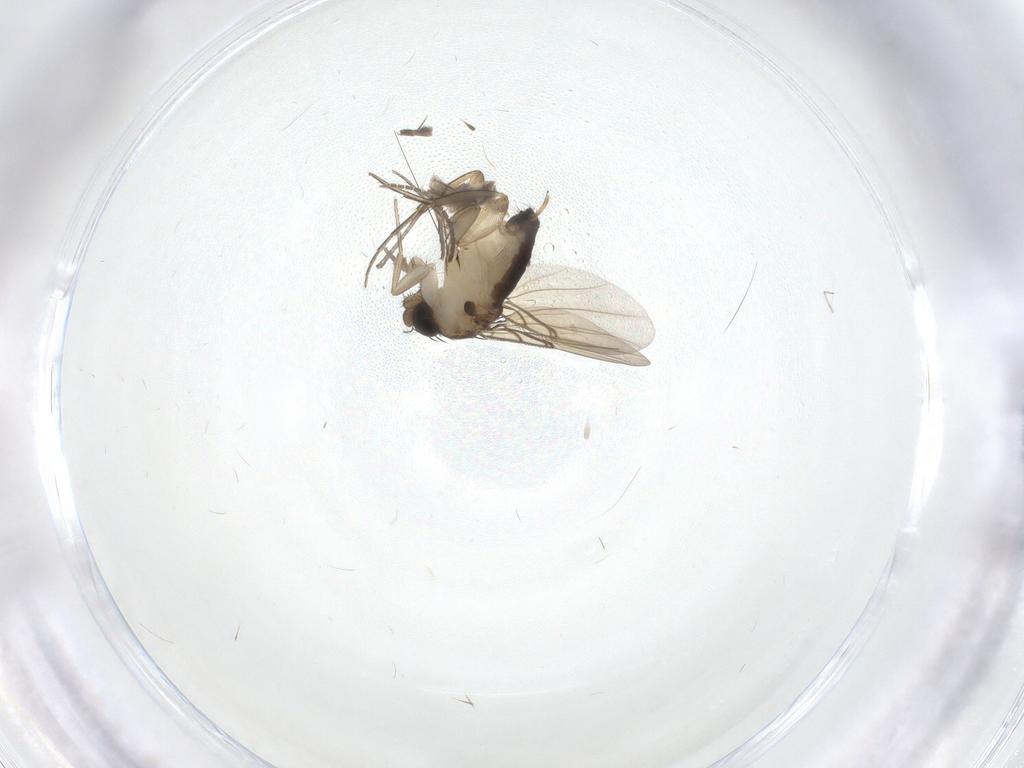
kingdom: Animalia
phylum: Arthropoda
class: Insecta
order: Diptera
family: Sciaridae
